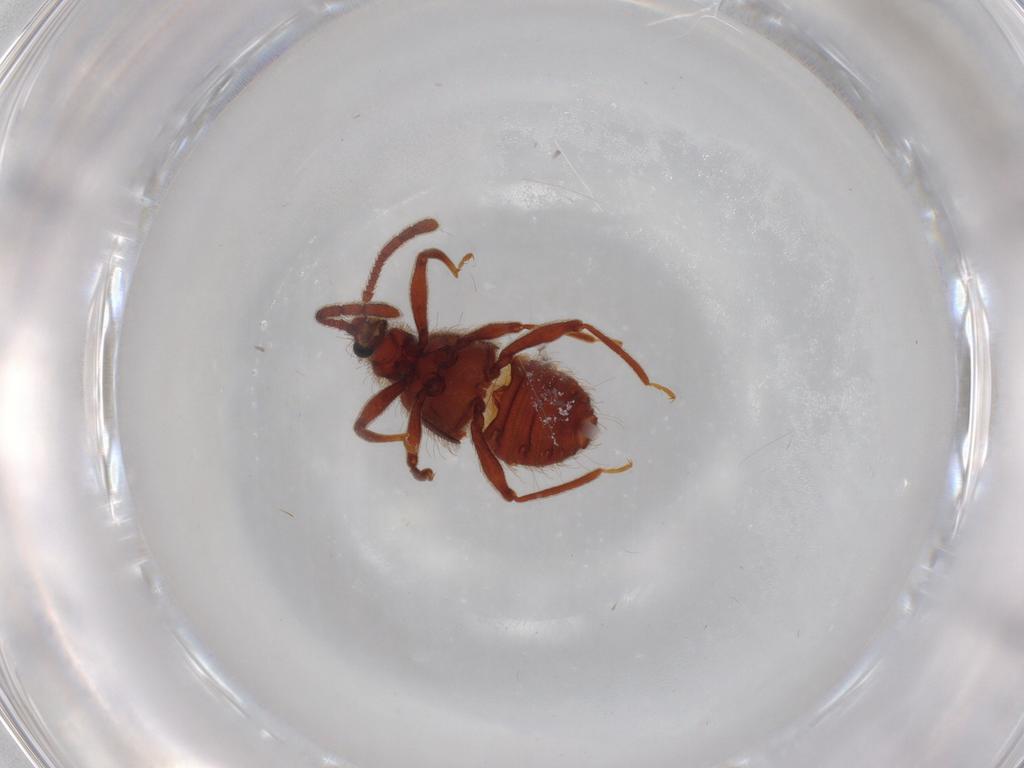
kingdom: Animalia
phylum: Arthropoda
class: Insecta
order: Coleoptera
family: Staphylinidae
